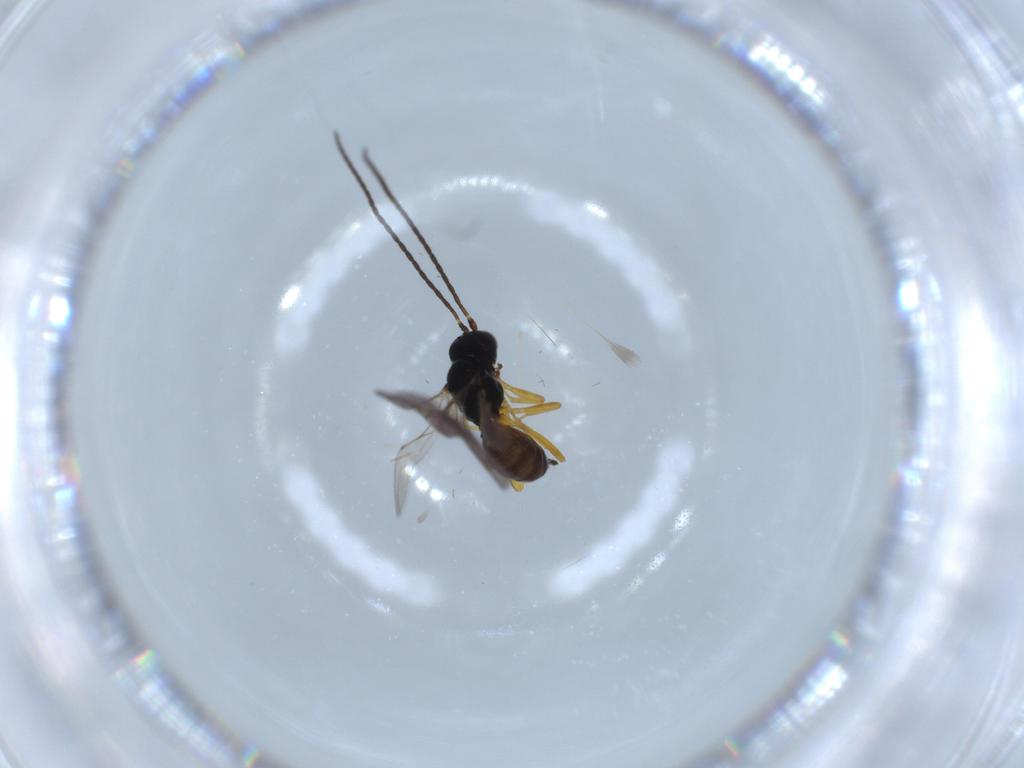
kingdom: Animalia
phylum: Arthropoda
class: Insecta
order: Hymenoptera
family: Braconidae
